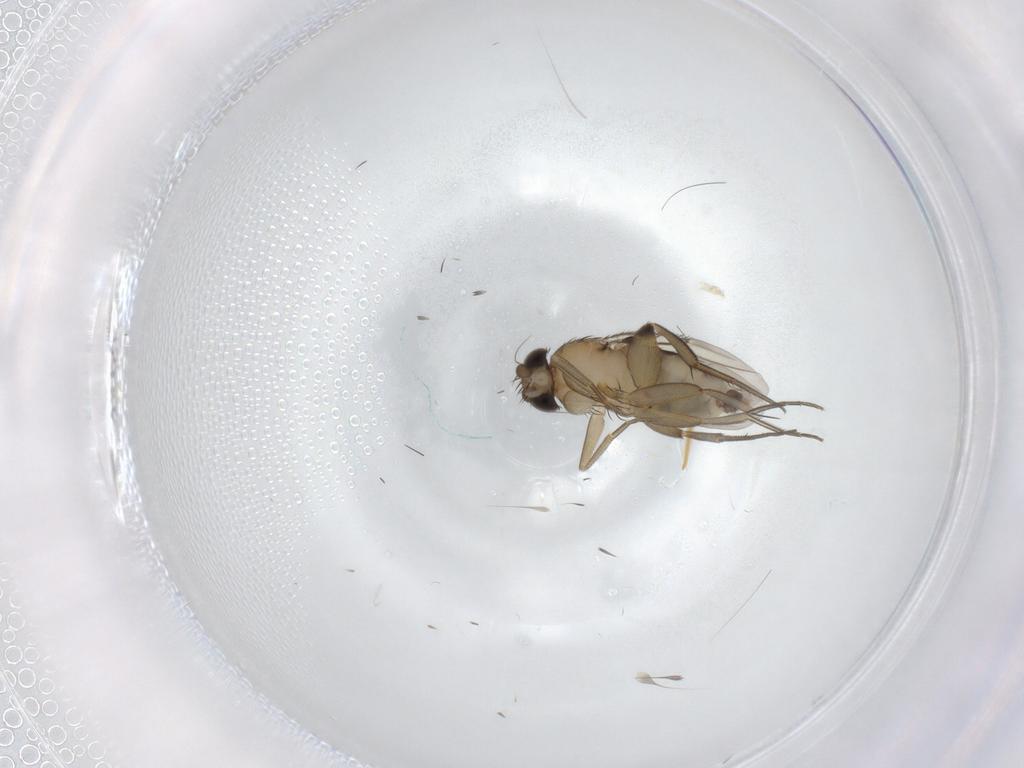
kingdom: Animalia
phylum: Arthropoda
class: Insecta
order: Diptera
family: Phoridae
